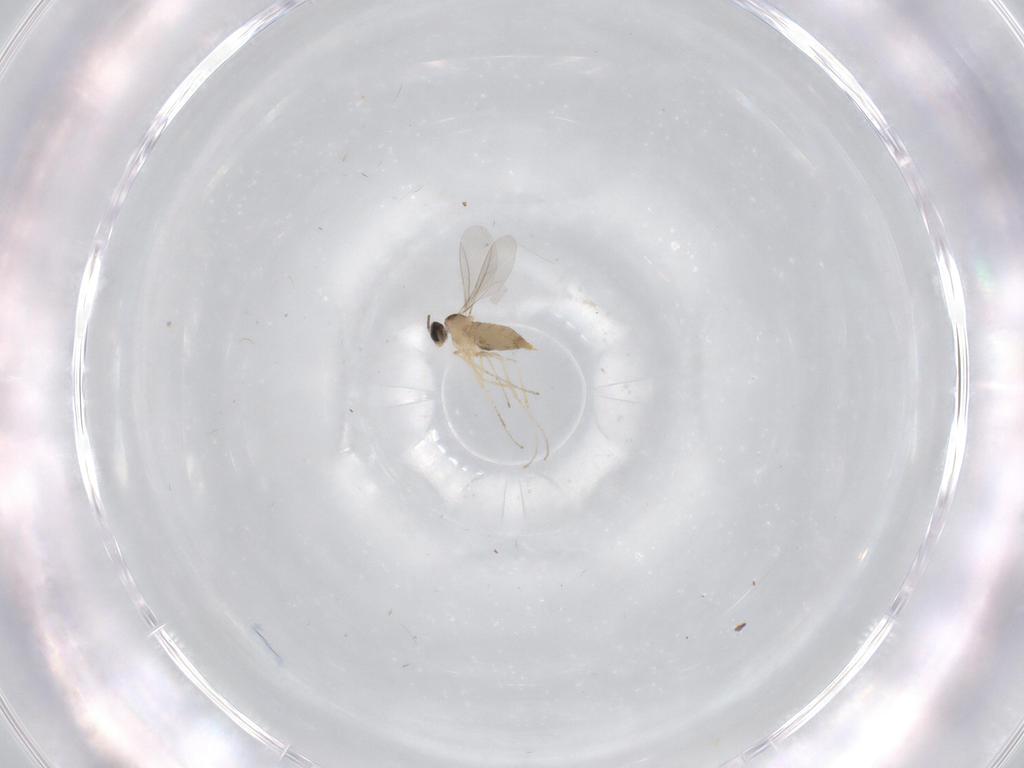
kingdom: Animalia
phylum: Arthropoda
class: Insecta
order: Diptera
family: Cecidomyiidae
